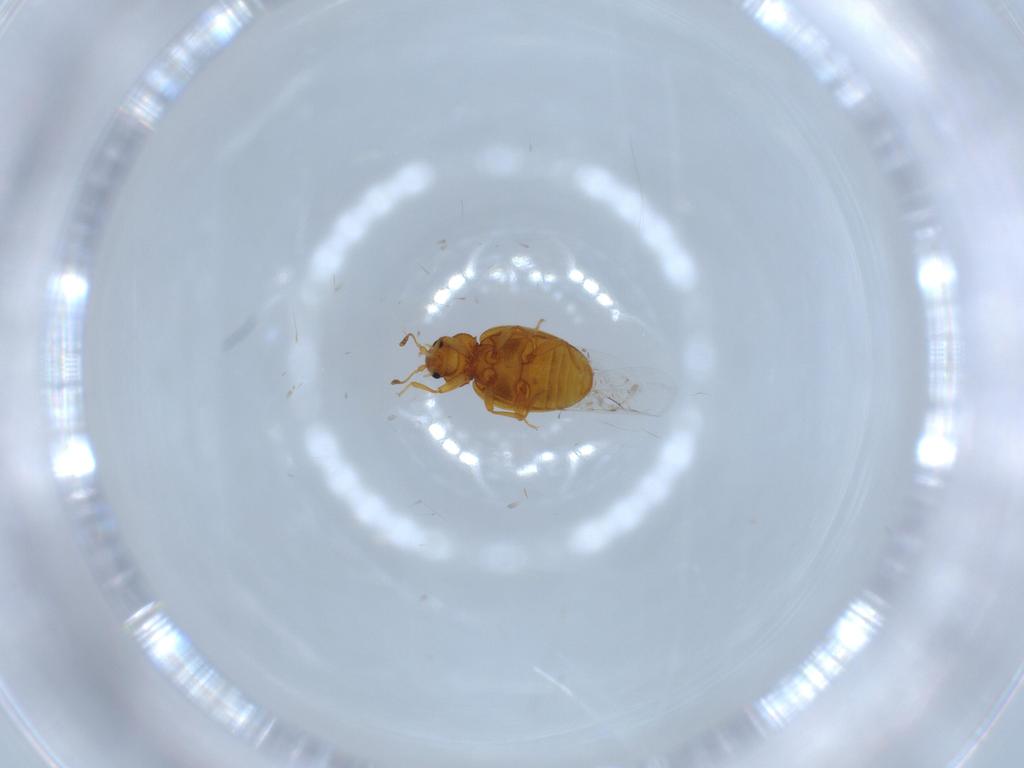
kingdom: Animalia
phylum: Arthropoda
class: Insecta
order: Coleoptera
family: Latridiidae
